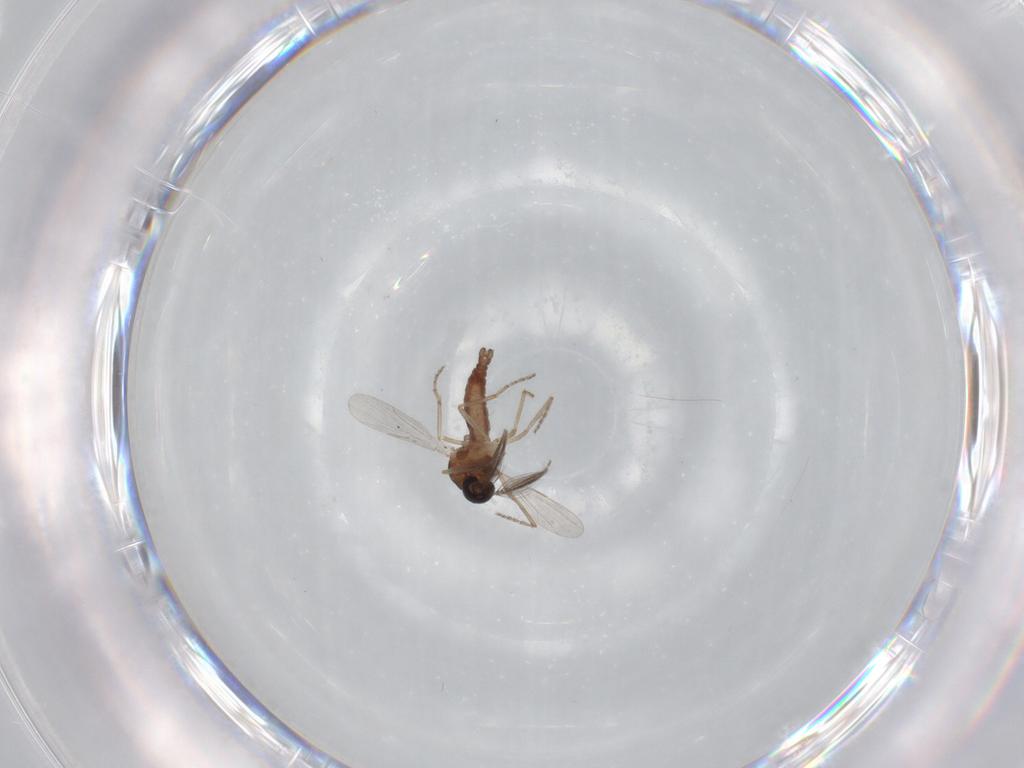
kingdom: Animalia
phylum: Arthropoda
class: Insecta
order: Diptera
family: Ceratopogonidae
